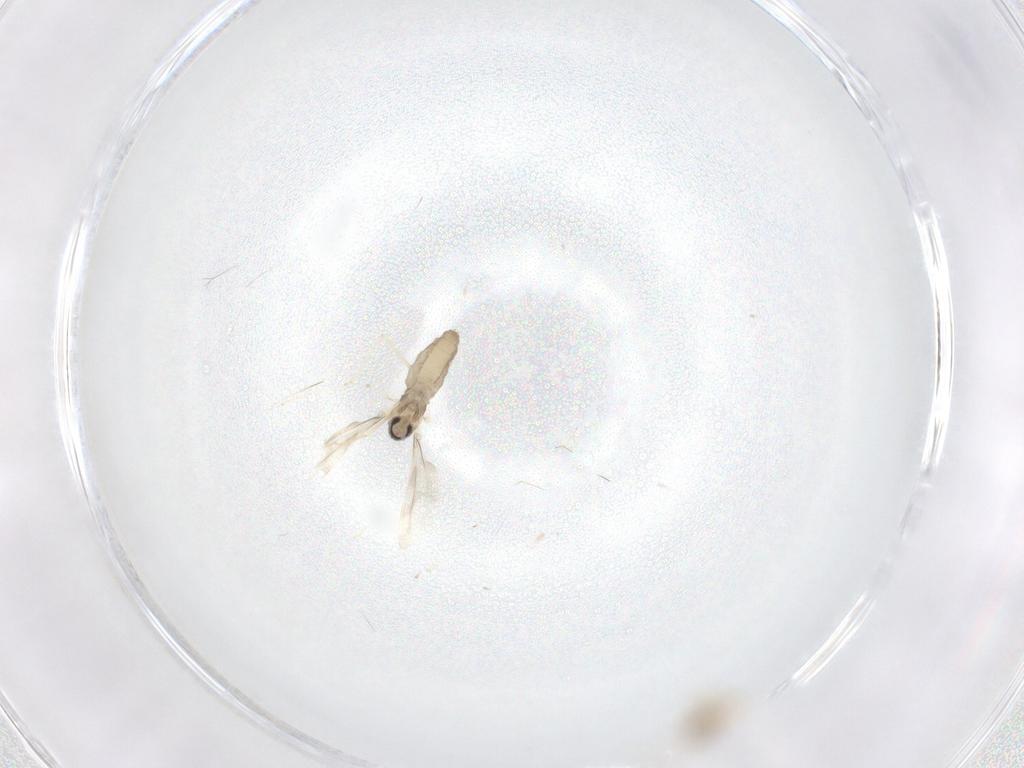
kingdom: Animalia
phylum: Arthropoda
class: Insecta
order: Diptera
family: Cecidomyiidae
